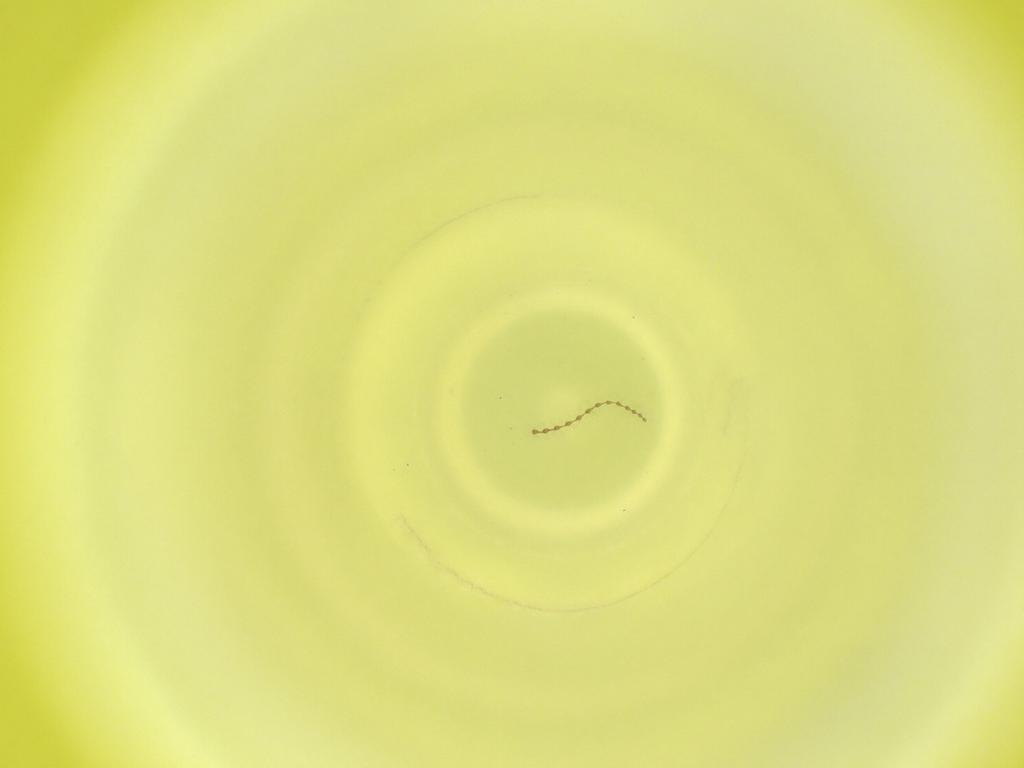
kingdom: Animalia
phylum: Arthropoda
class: Insecta
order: Diptera
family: Cecidomyiidae
